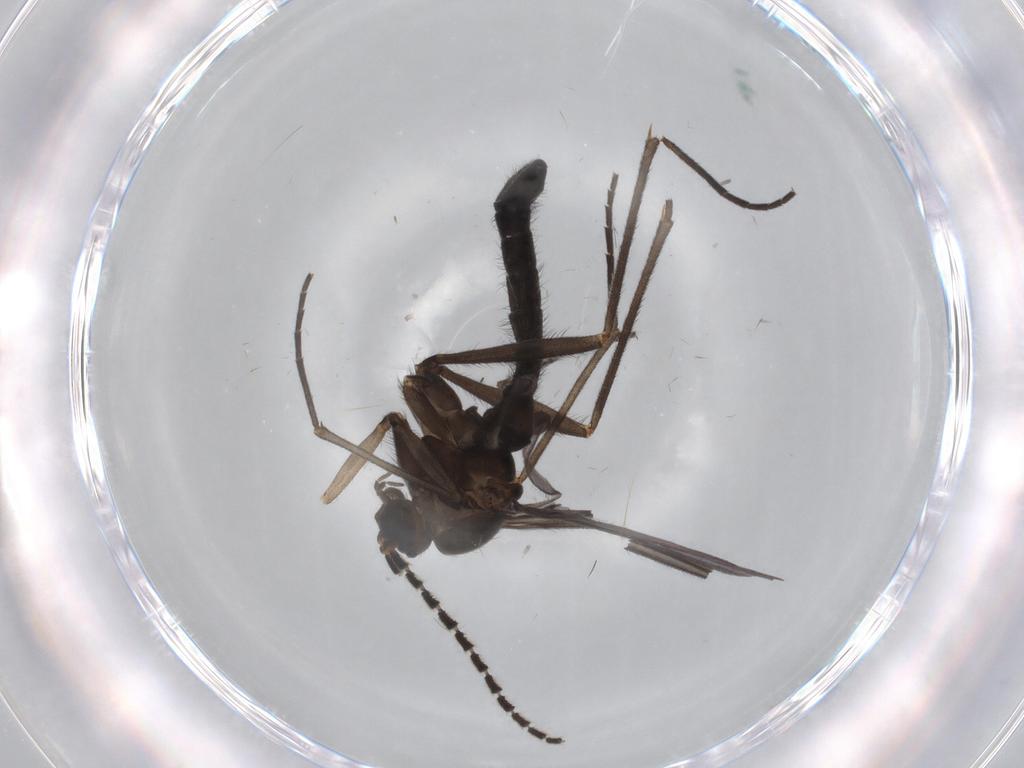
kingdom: Animalia
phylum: Arthropoda
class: Insecta
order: Diptera
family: Cecidomyiidae
